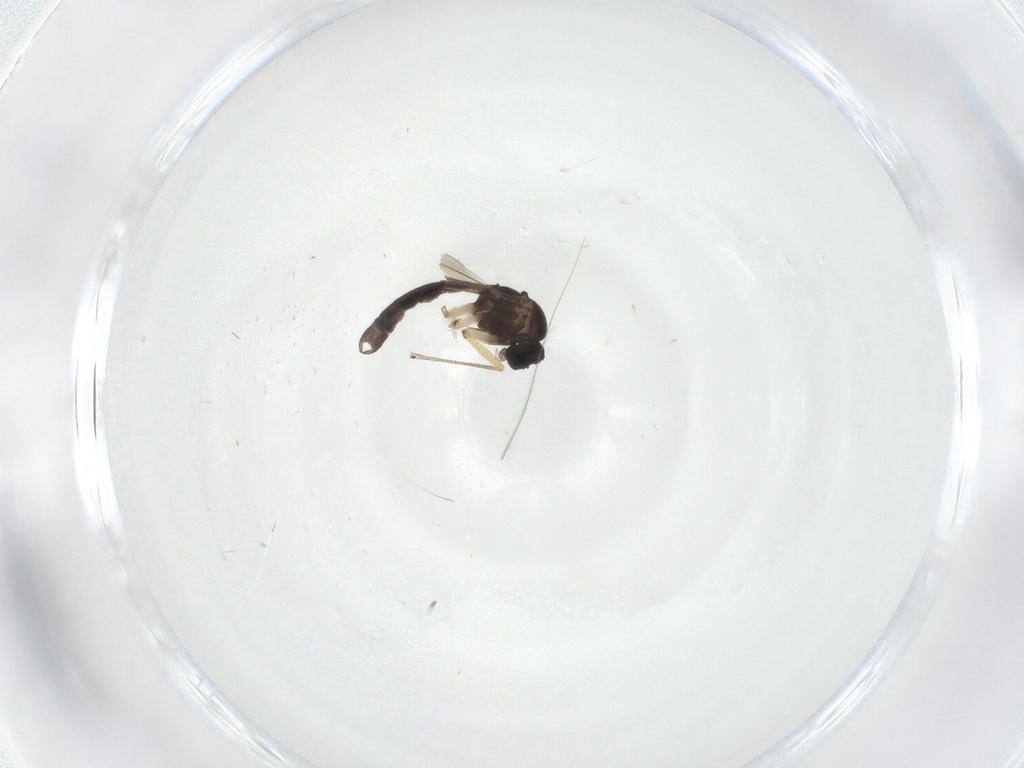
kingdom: Animalia
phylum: Arthropoda
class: Insecta
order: Diptera
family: Sciaridae
